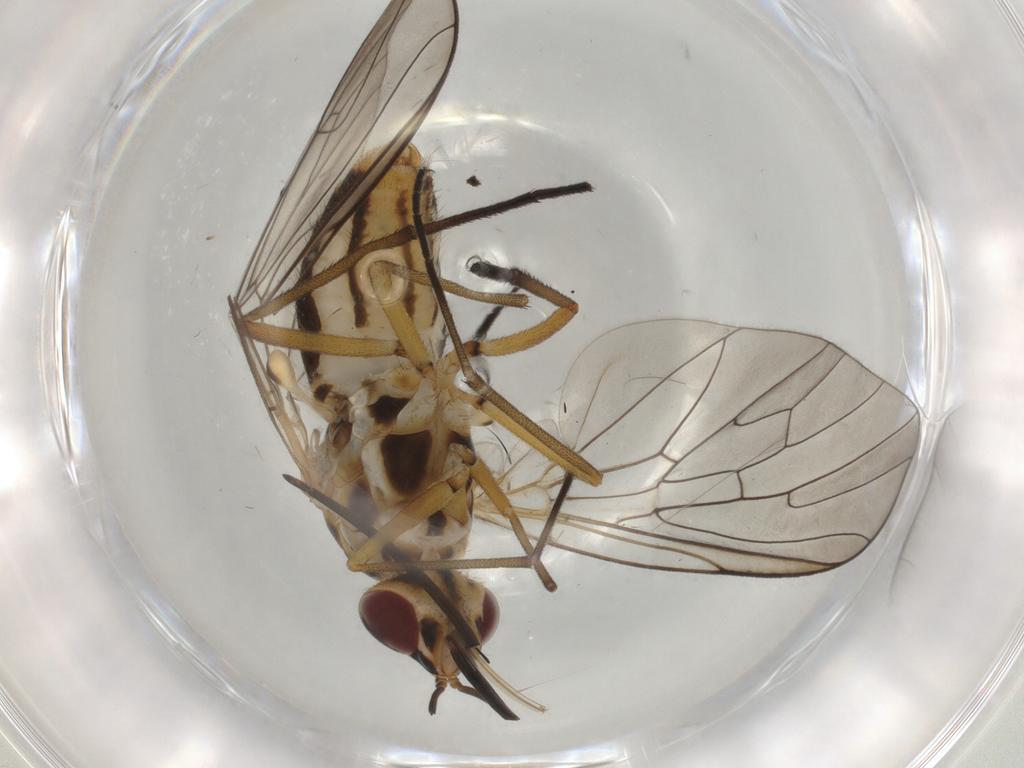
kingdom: Animalia
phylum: Arthropoda
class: Insecta
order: Diptera
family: Bombyliidae
